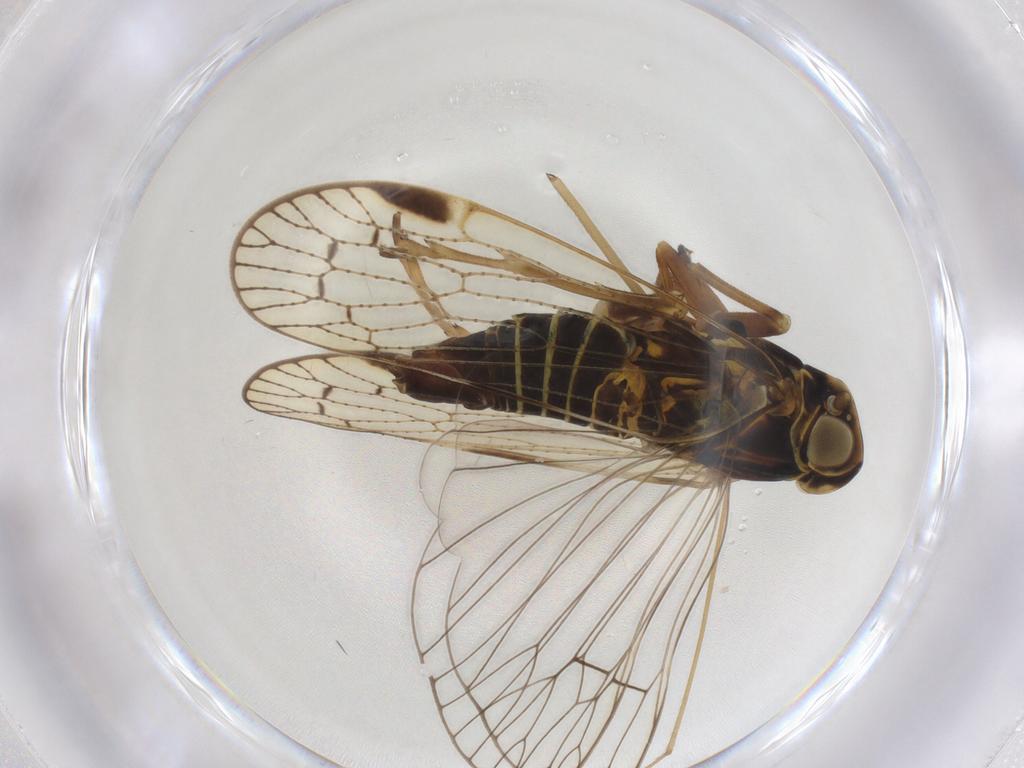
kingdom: Animalia
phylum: Arthropoda
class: Insecta
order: Hemiptera
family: Cixiidae
